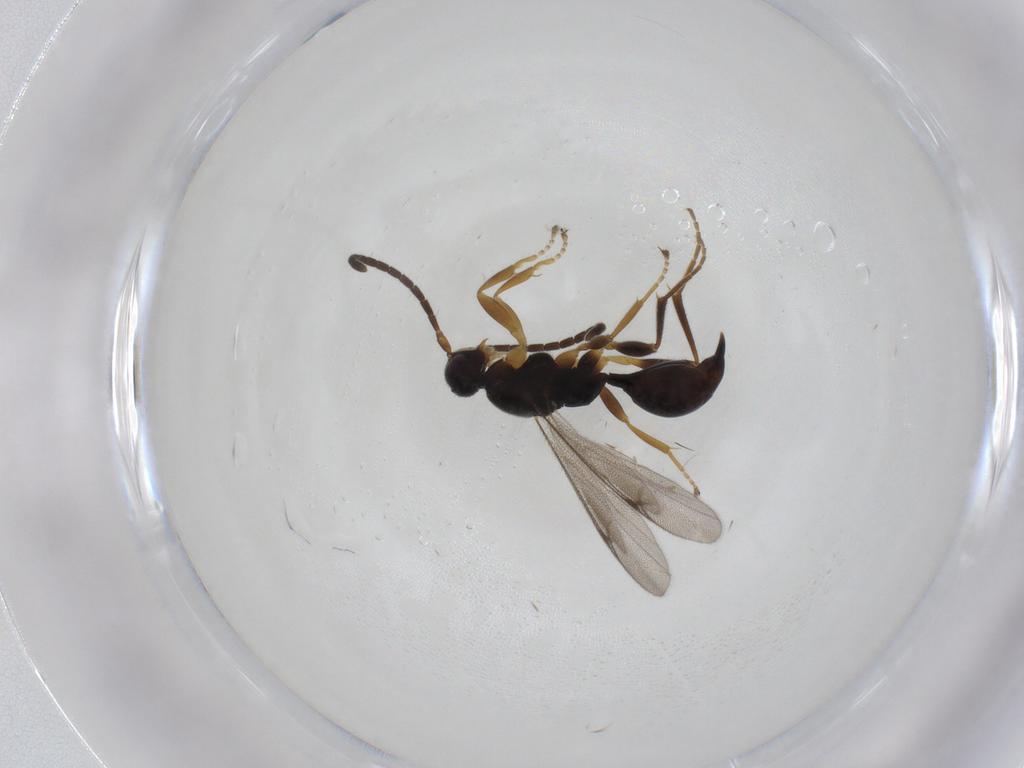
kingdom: Animalia
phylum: Arthropoda
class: Insecta
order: Hymenoptera
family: Proctotrupidae
